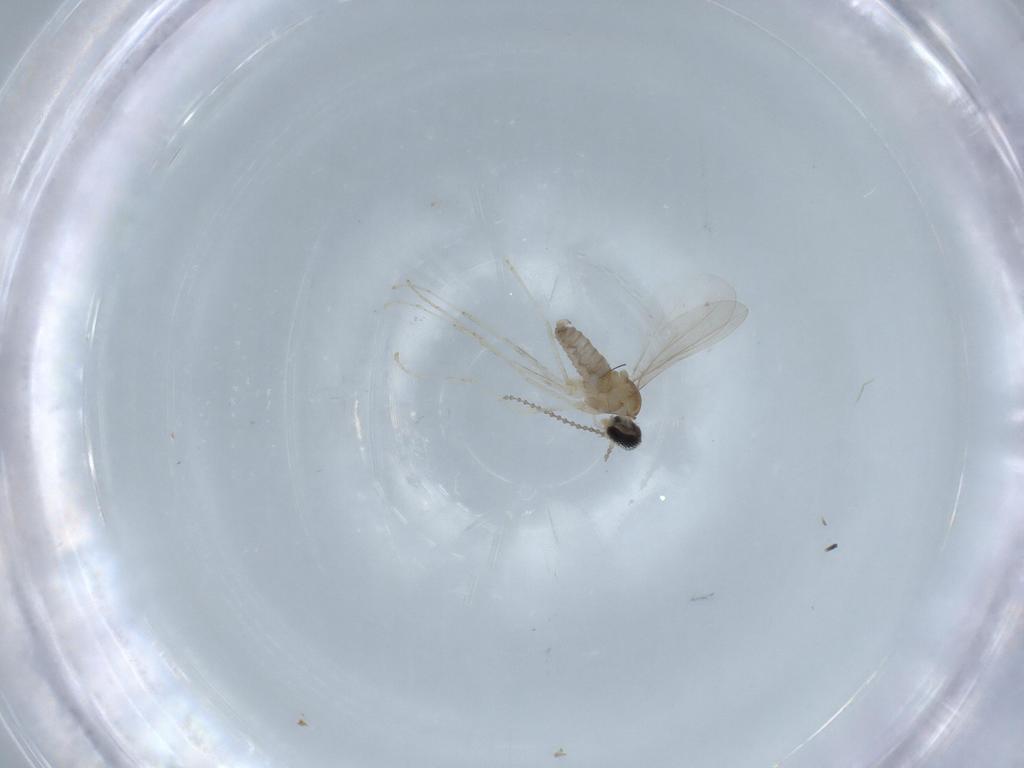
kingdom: Animalia
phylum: Arthropoda
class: Insecta
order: Diptera
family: Cecidomyiidae
